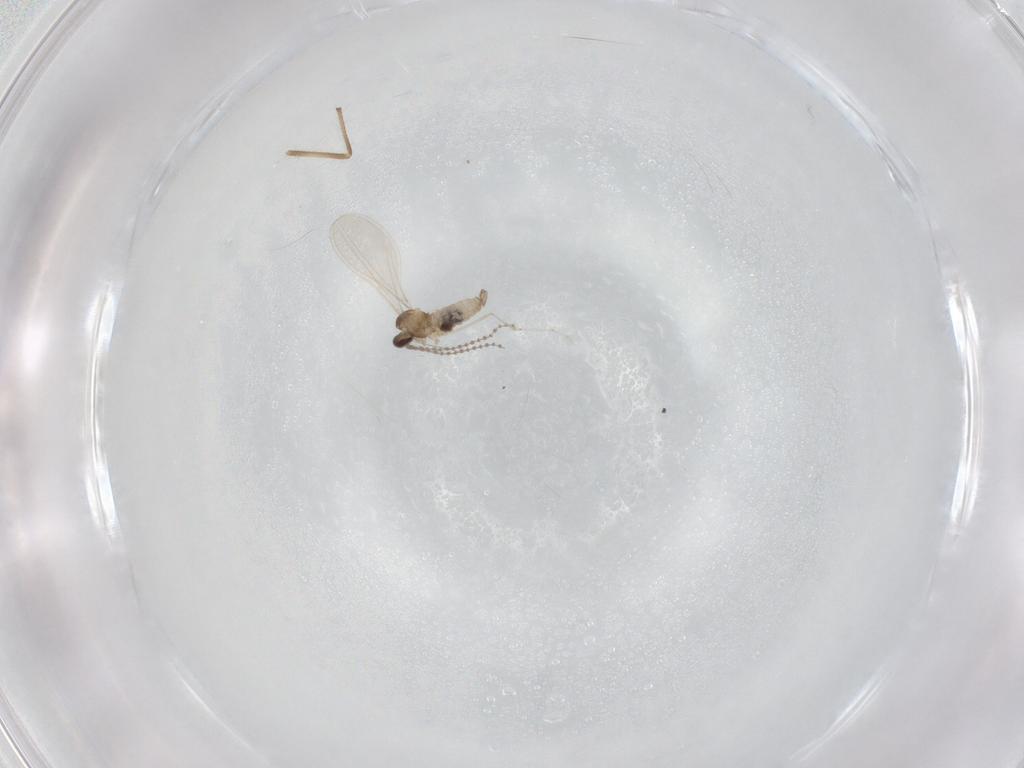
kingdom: Animalia
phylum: Arthropoda
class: Insecta
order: Diptera
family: Cecidomyiidae
